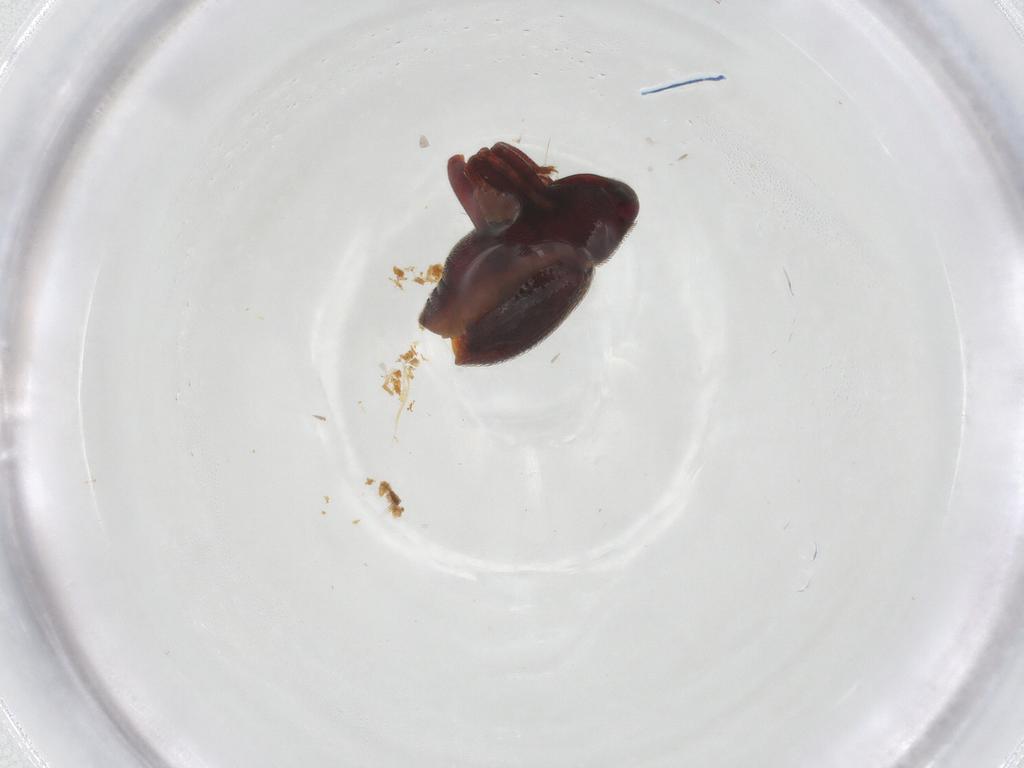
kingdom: Animalia
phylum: Arthropoda
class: Insecta
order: Coleoptera
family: Curculionidae
